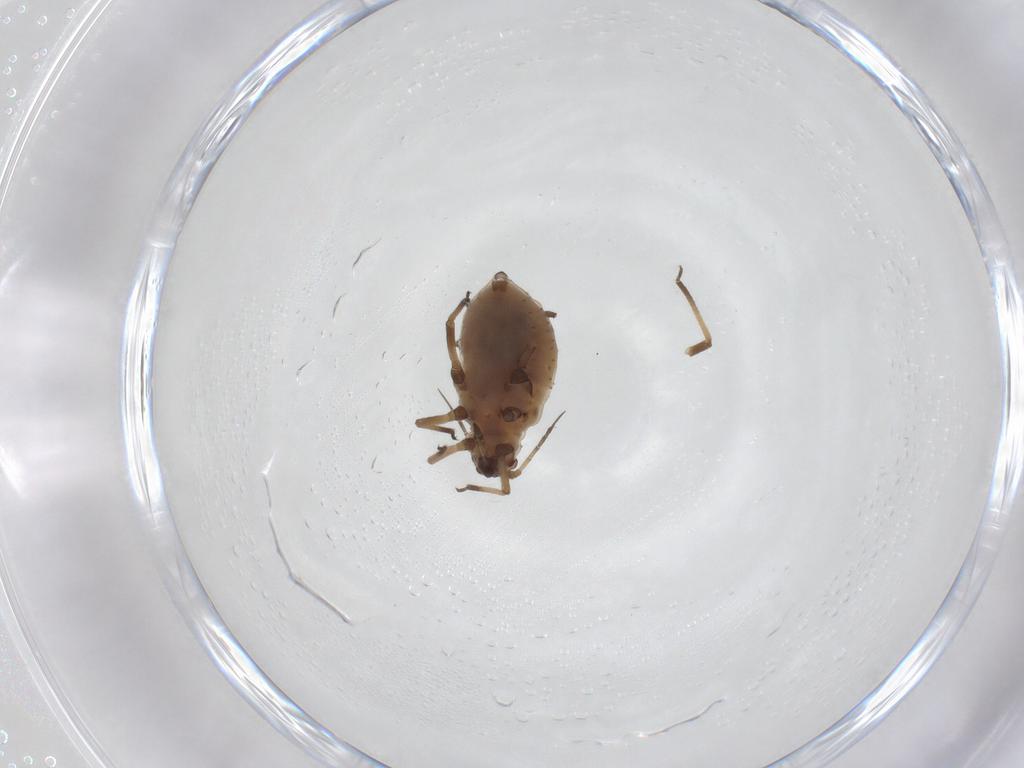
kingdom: Animalia
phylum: Arthropoda
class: Insecta
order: Hemiptera
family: Aphididae
